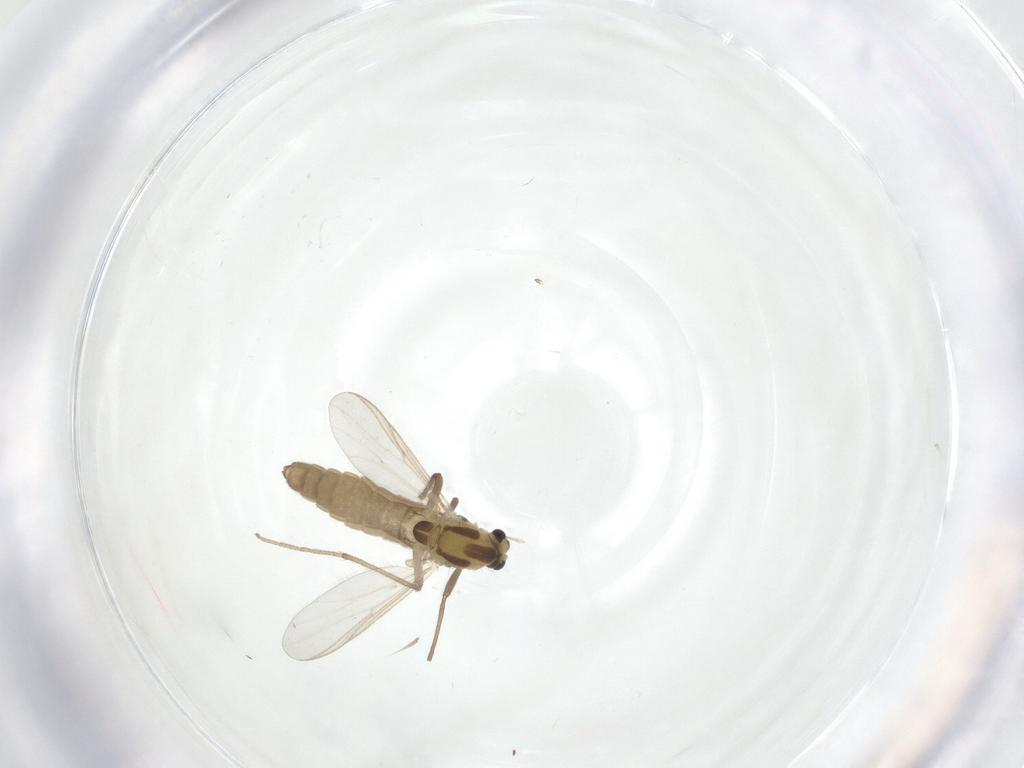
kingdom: Animalia
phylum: Arthropoda
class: Insecta
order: Diptera
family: Chironomidae
